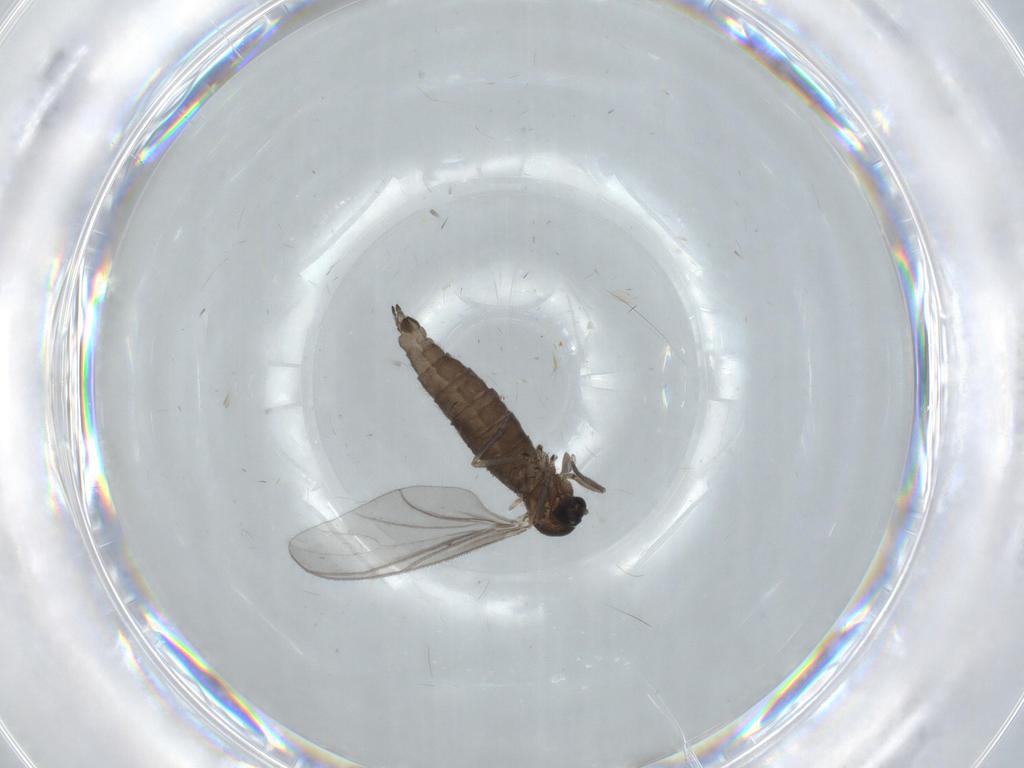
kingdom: Animalia
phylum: Arthropoda
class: Insecta
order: Diptera
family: Sciaridae
